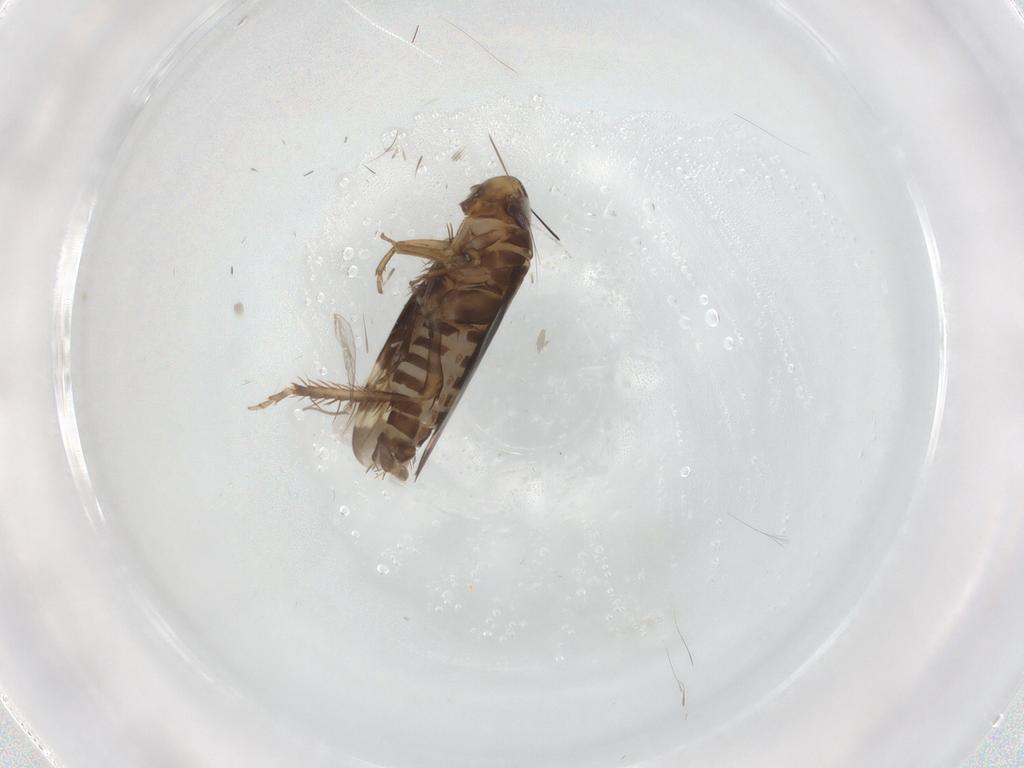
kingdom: Animalia
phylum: Arthropoda
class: Insecta
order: Hemiptera
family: Cicadellidae
